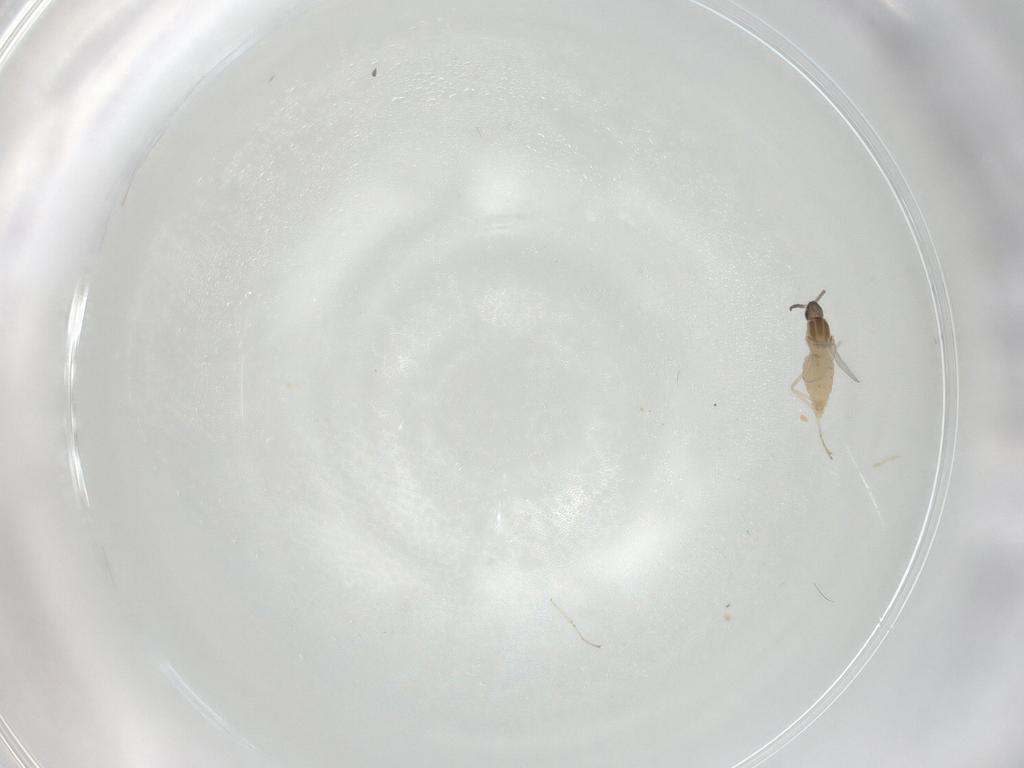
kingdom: Animalia
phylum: Arthropoda
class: Insecta
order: Diptera
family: Cecidomyiidae
